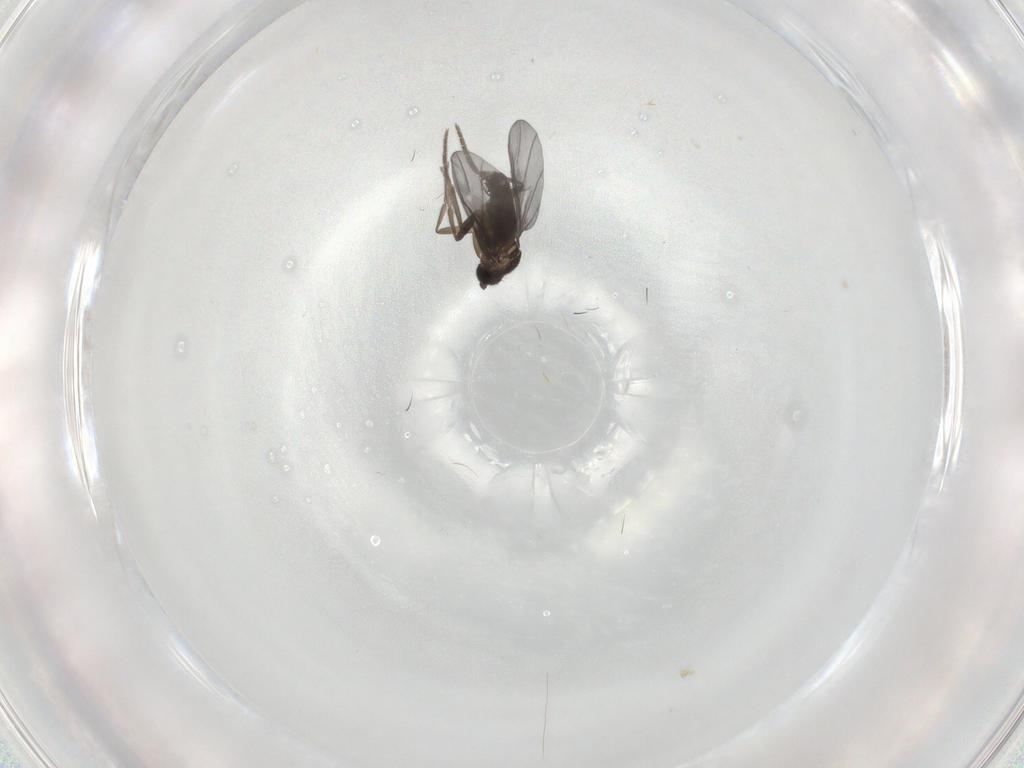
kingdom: Animalia
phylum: Arthropoda
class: Insecta
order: Diptera
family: Phoridae
